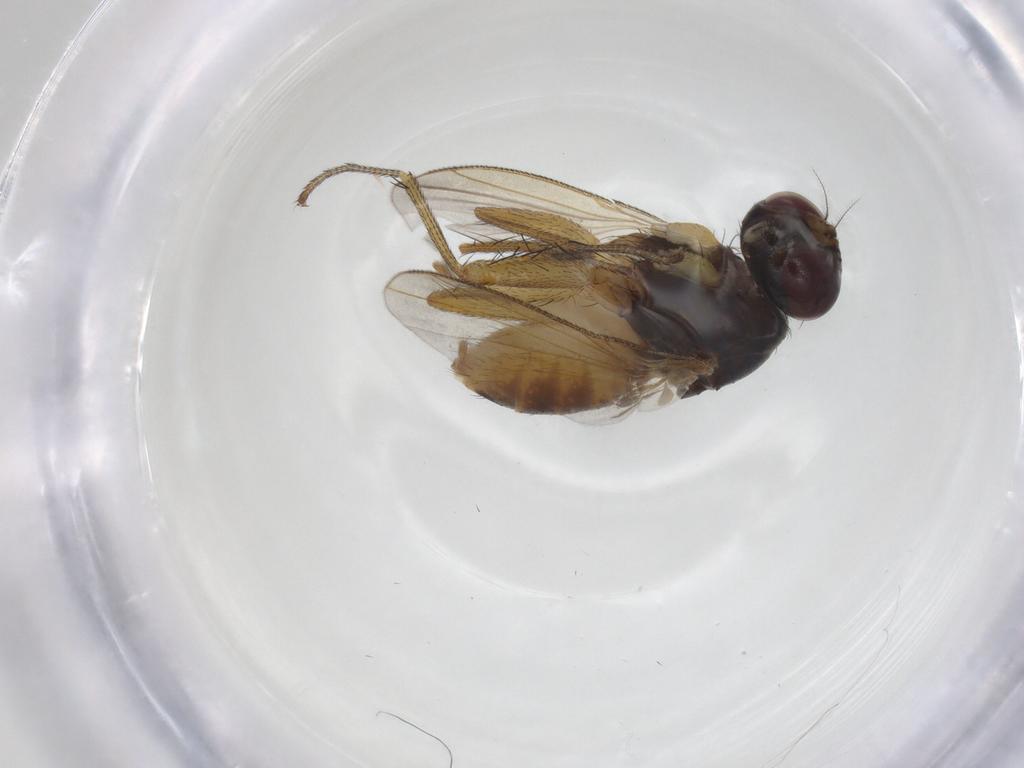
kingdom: Animalia
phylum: Arthropoda
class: Insecta
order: Diptera
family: Muscidae
